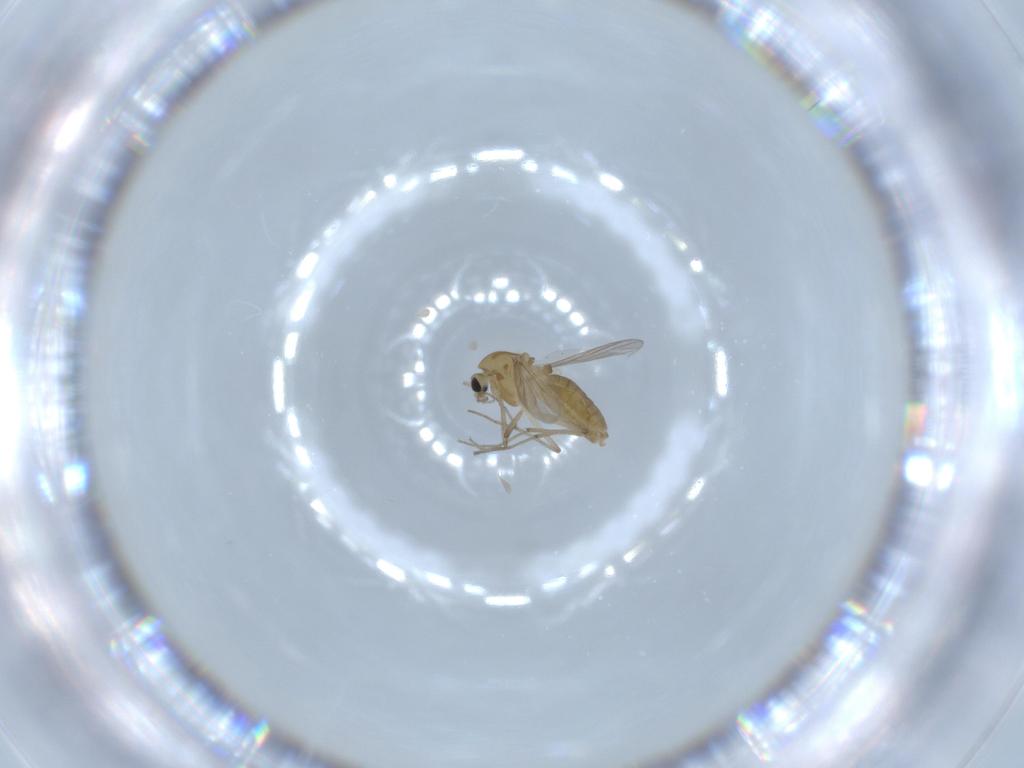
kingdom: Animalia
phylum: Arthropoda
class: Insecta
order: Diptera
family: Chironomidae
